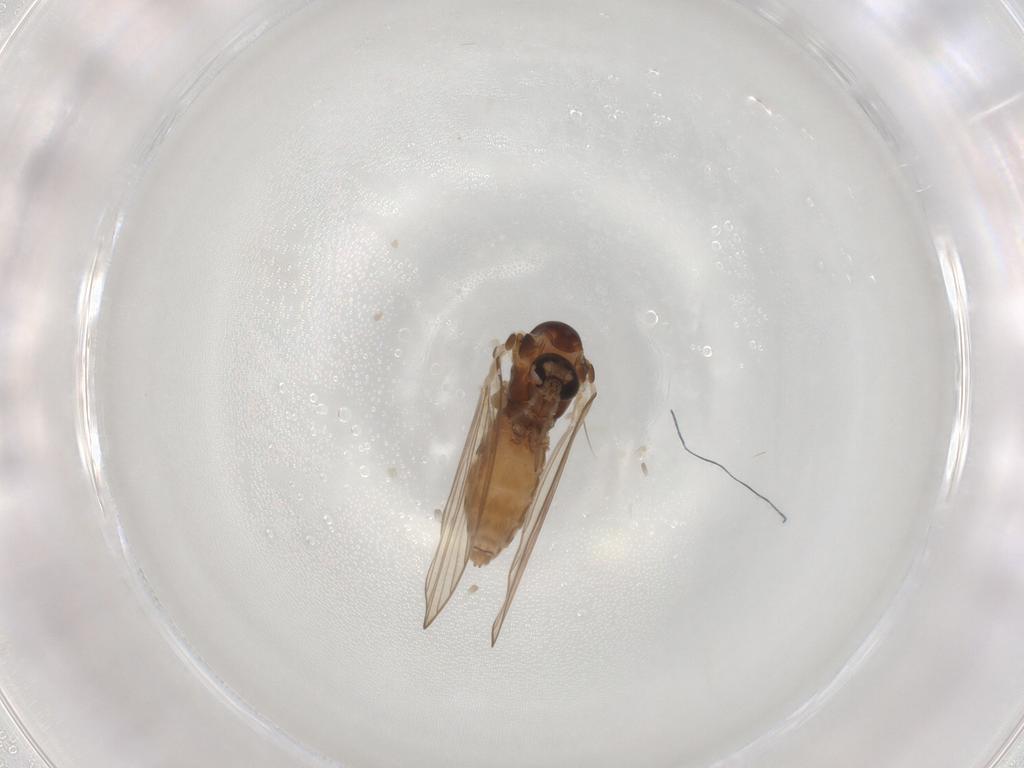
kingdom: Animalia
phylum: Arthropoda
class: Insecta
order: Diptera
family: Psychodidae
